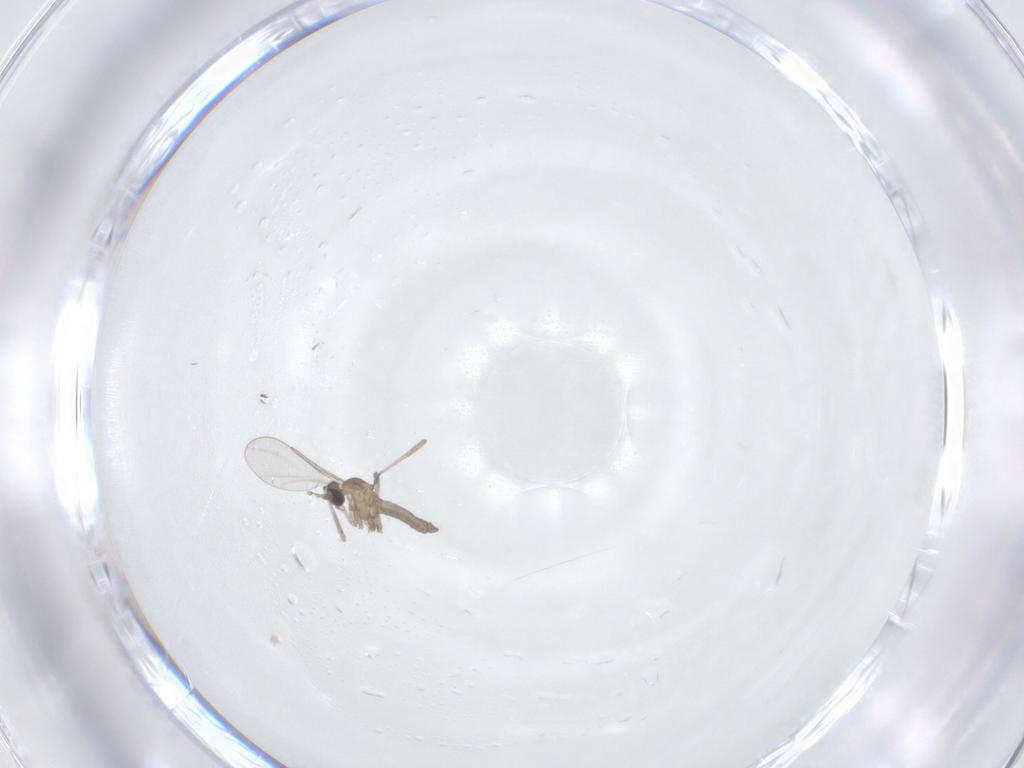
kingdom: Animalia
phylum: Arthropoda
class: Insecta
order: Diptera
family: Cecidomyiidae
